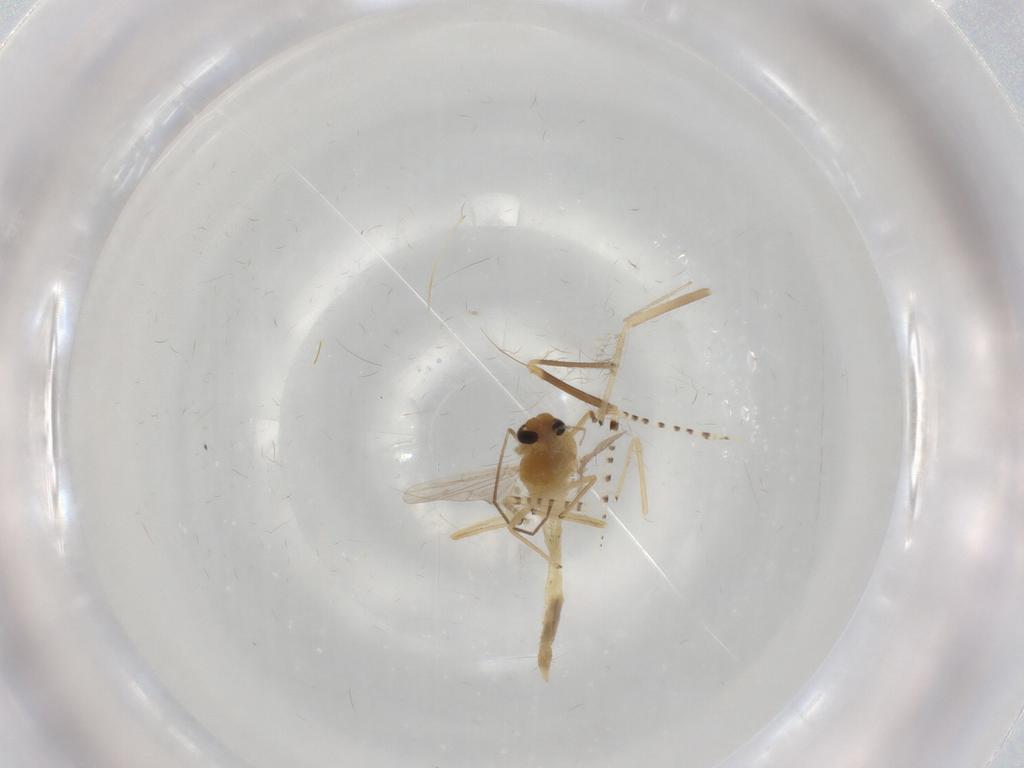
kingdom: Animalia
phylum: Arthropoda
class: Insecta
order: Diptera
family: Chironomidae
